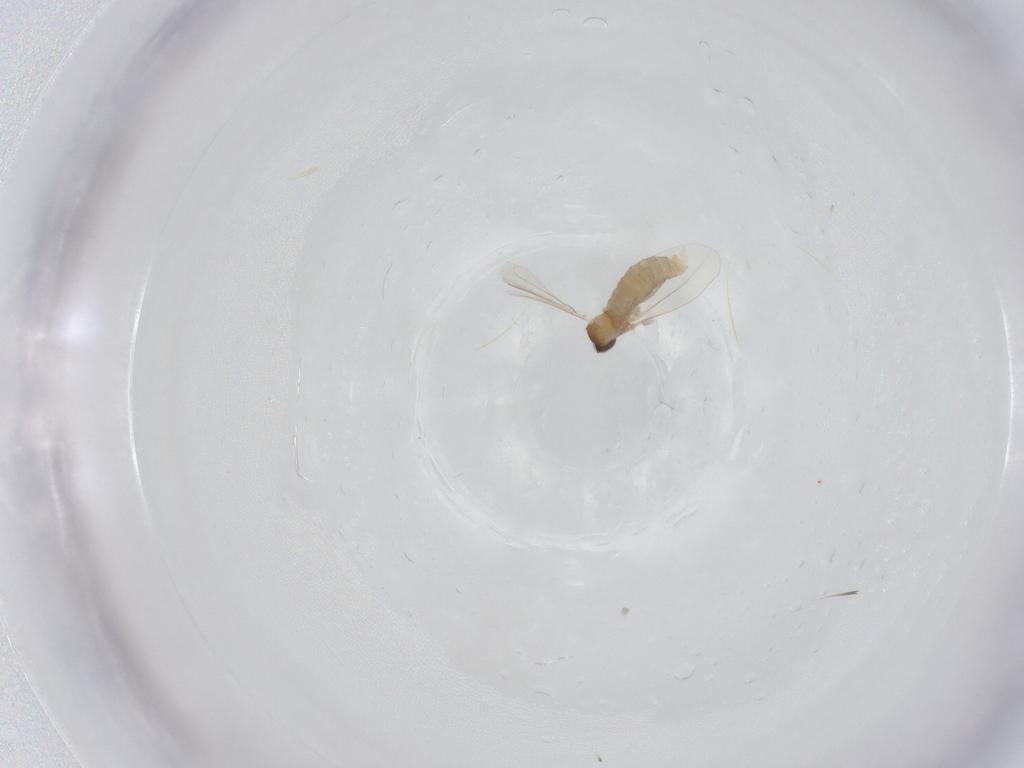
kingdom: Animalia
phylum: Arthropoda
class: Insecta
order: Diptera
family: Cecidomyiidae
